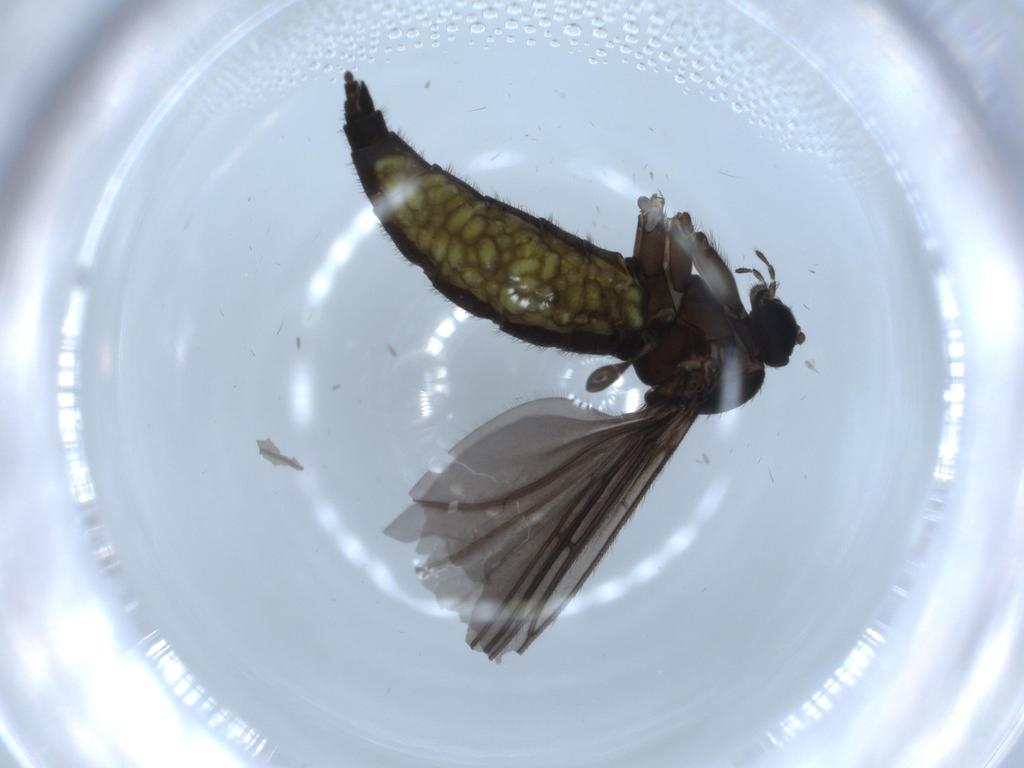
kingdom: Animalia
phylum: Arthropoda
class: Insecta
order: Diptera
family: Sciaridae
